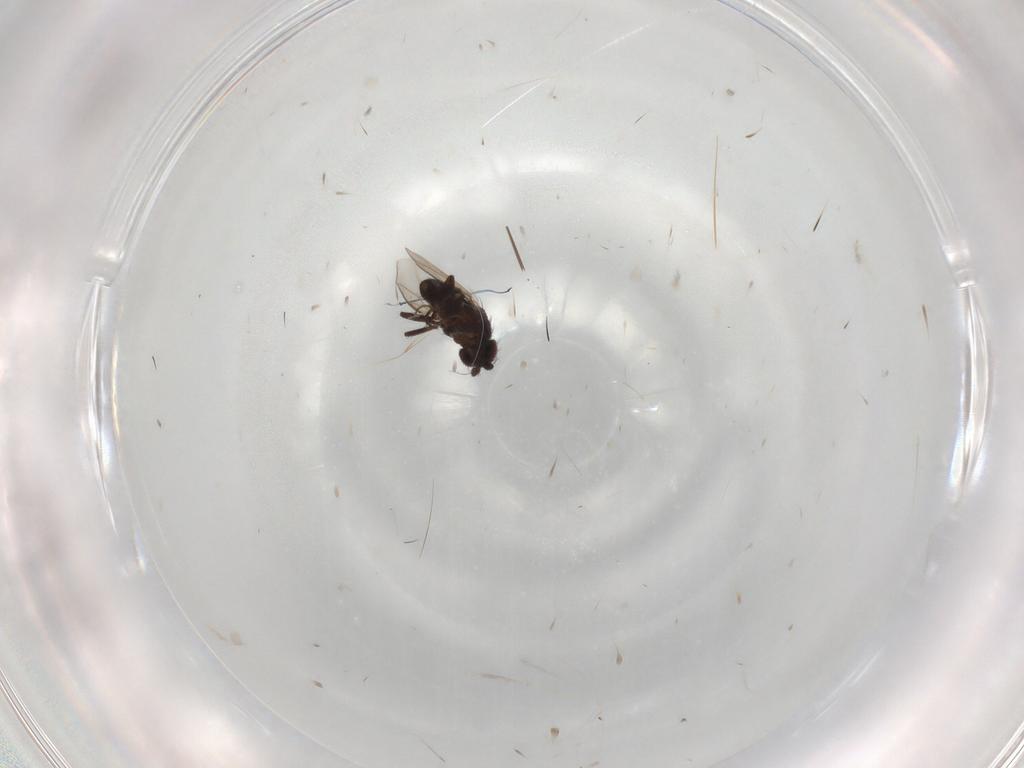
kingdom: Animalia
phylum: Arthropoda
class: Insecta
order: Diptera
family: Sphaeroceridae
